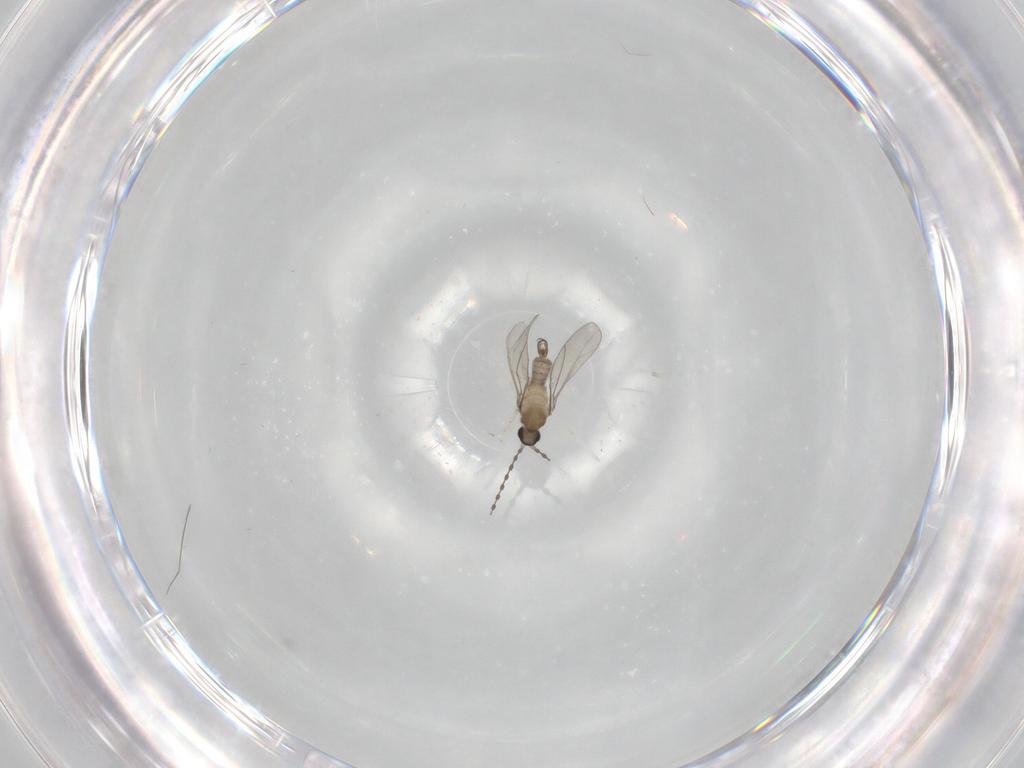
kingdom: Animalia
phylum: Arthropoda
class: Insecta
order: Diptera
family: Cecidomyiidae
